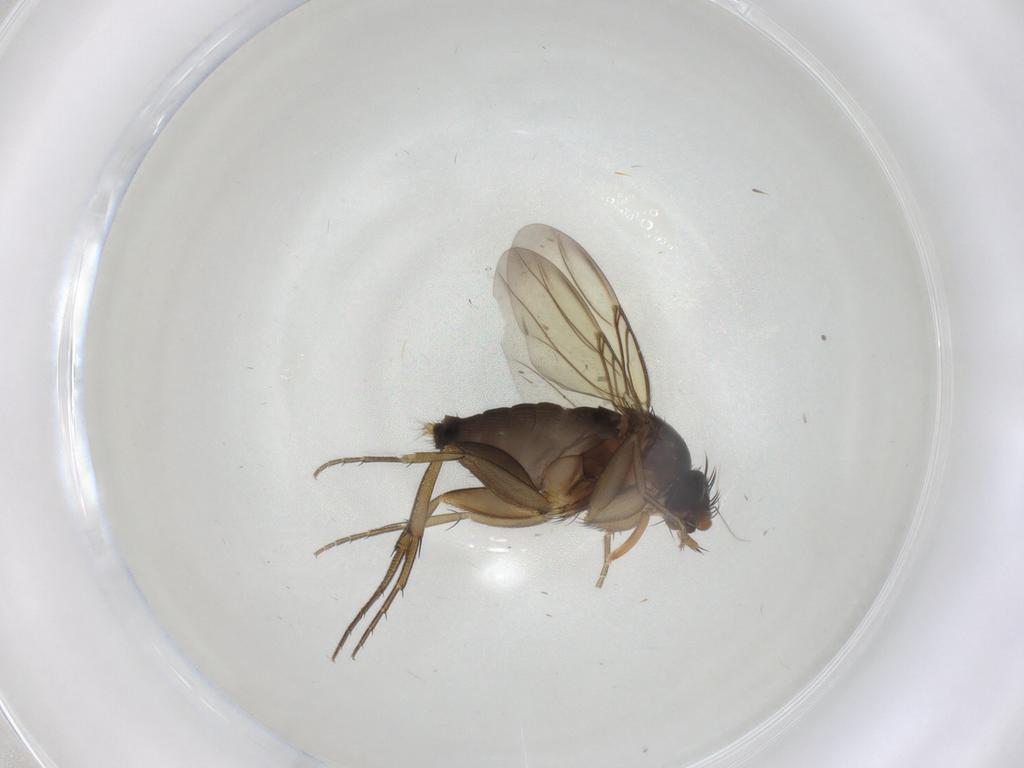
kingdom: Animalia
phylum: Arthropoda
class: Insecta
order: Diptera
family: Phoridae
